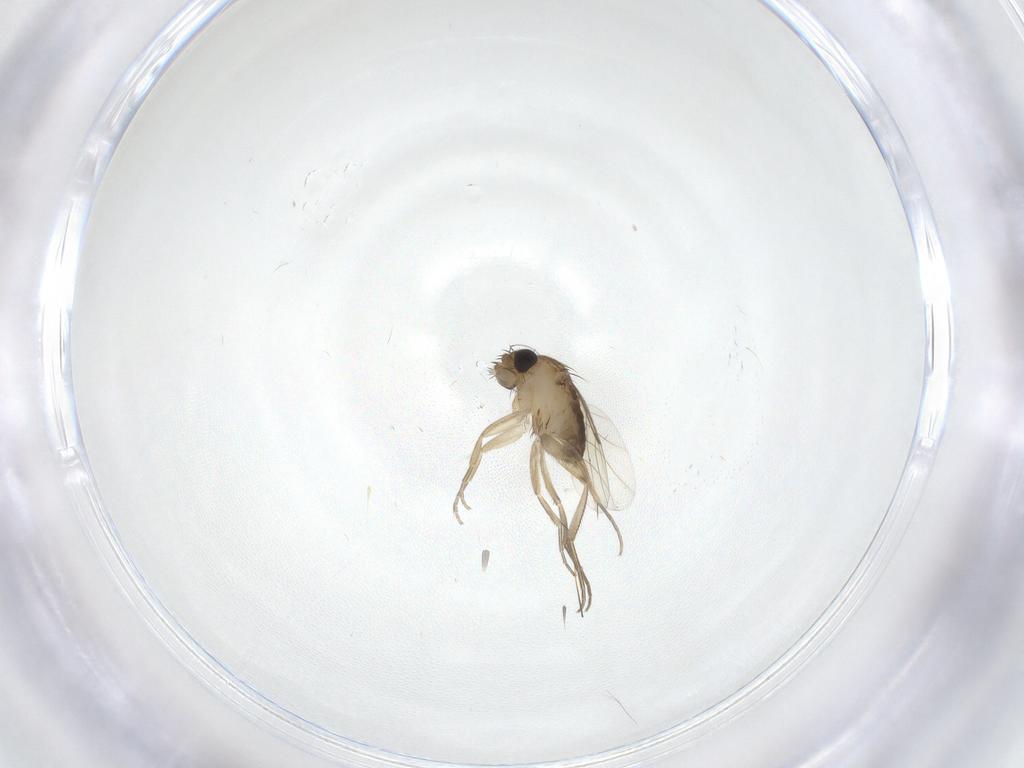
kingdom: Animalia
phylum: Arthropoda
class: Insecta
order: Diptera
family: Phoridae
